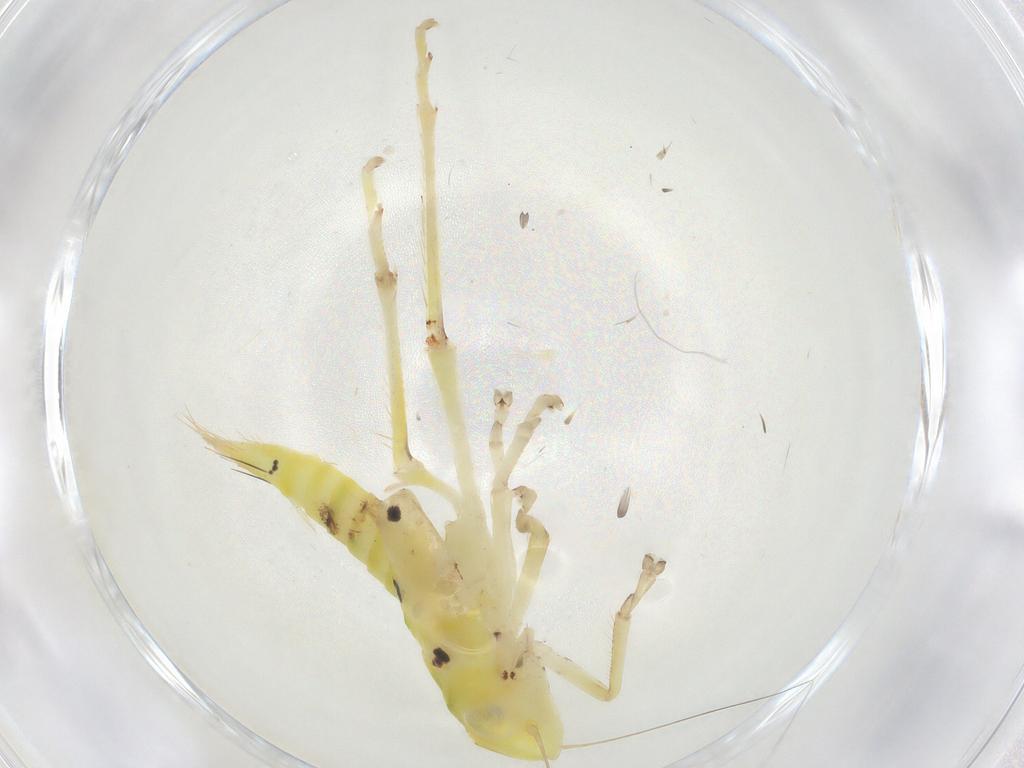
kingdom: Animalia
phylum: Arthropoda
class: Insecta
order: Diptera
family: Cecidomyiidae
